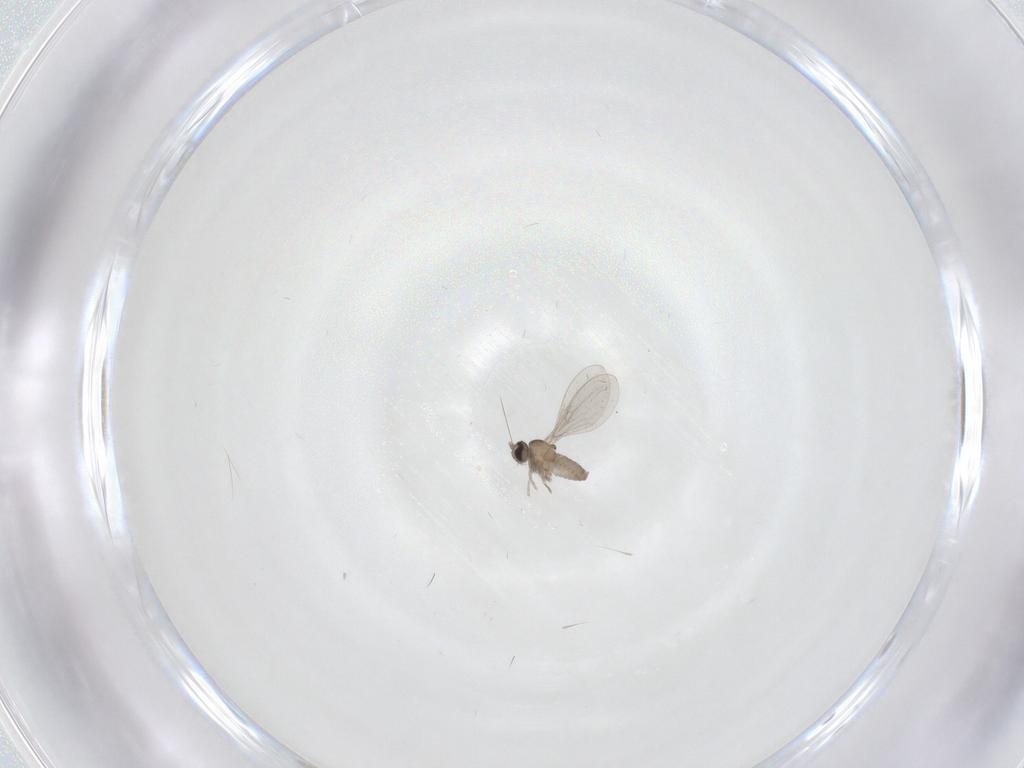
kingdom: Animalia
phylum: Arthropoda
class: Insecta
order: Diptera
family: Cecidomyiidae
